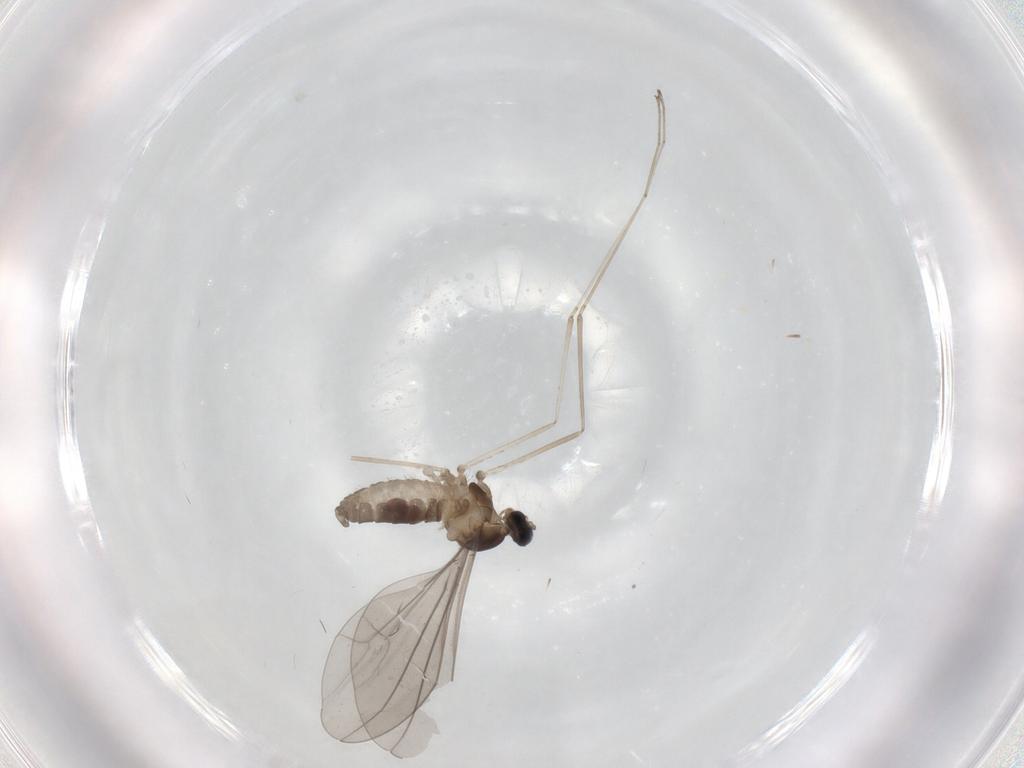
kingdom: Animalia
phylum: Arthropoda
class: Insecta
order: Diptera
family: Cecidomyiidae
